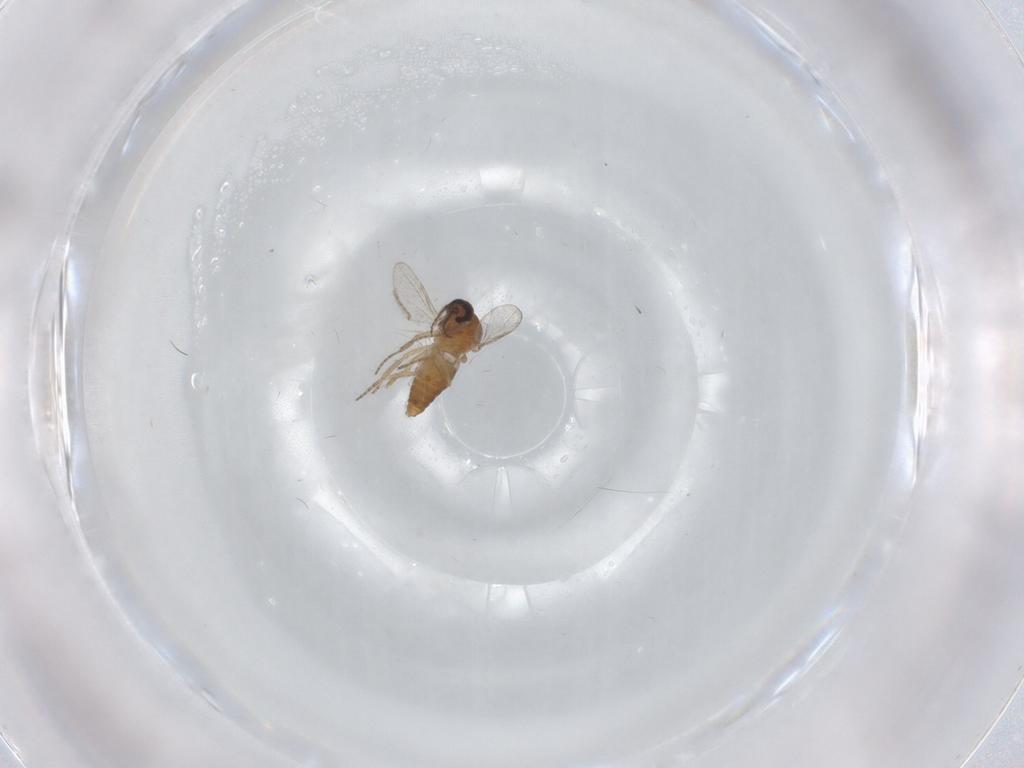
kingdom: Animalia
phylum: Arthropoda
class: Insecta
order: Diptera
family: Ceratopogonidae
